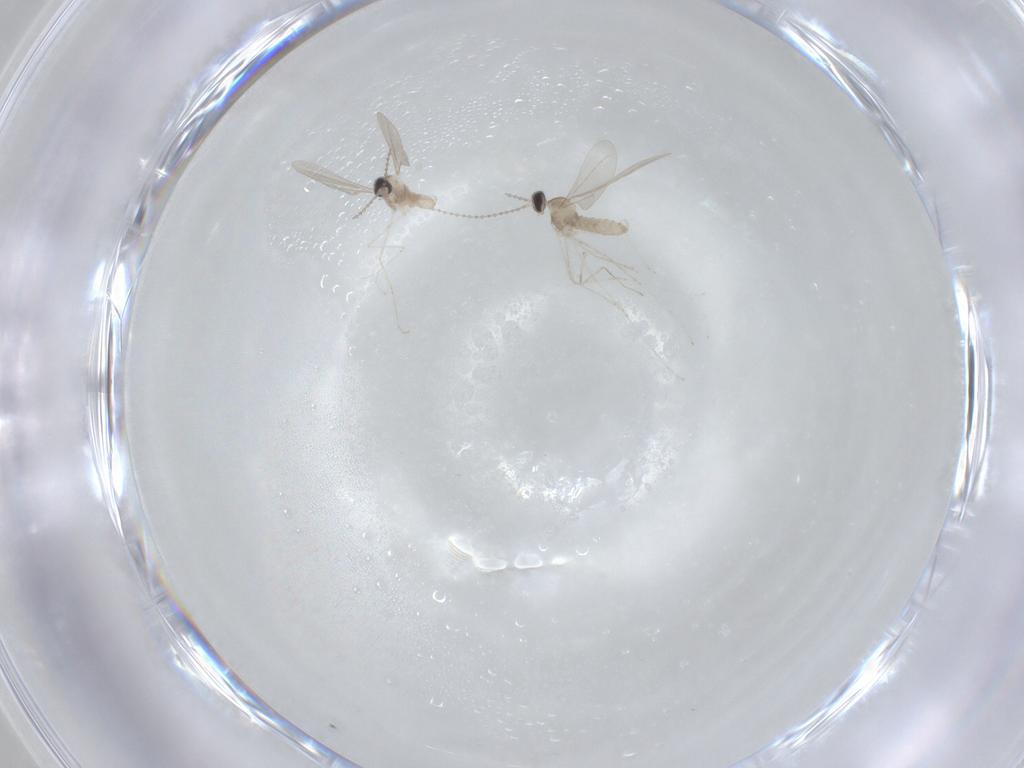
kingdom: Animalia
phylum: Arthropoda
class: Insecta
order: Diptera
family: Cecidomyiidae
